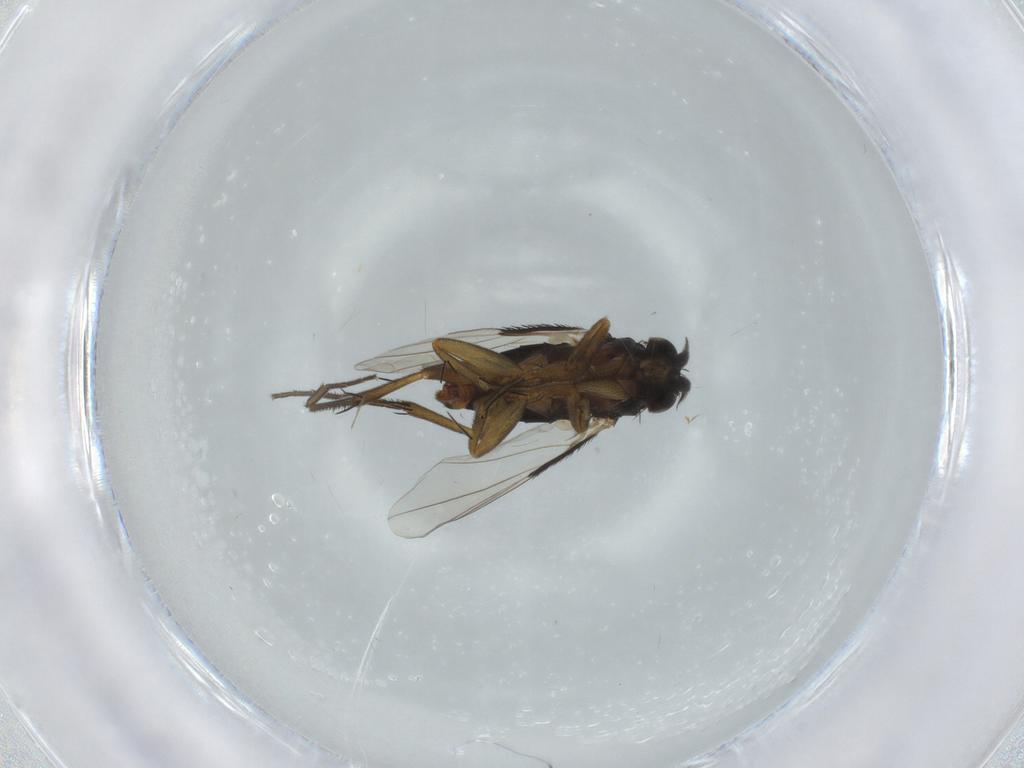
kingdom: Animalia
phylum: Arthropoda
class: Insecta
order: Diptera
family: Phoridae
